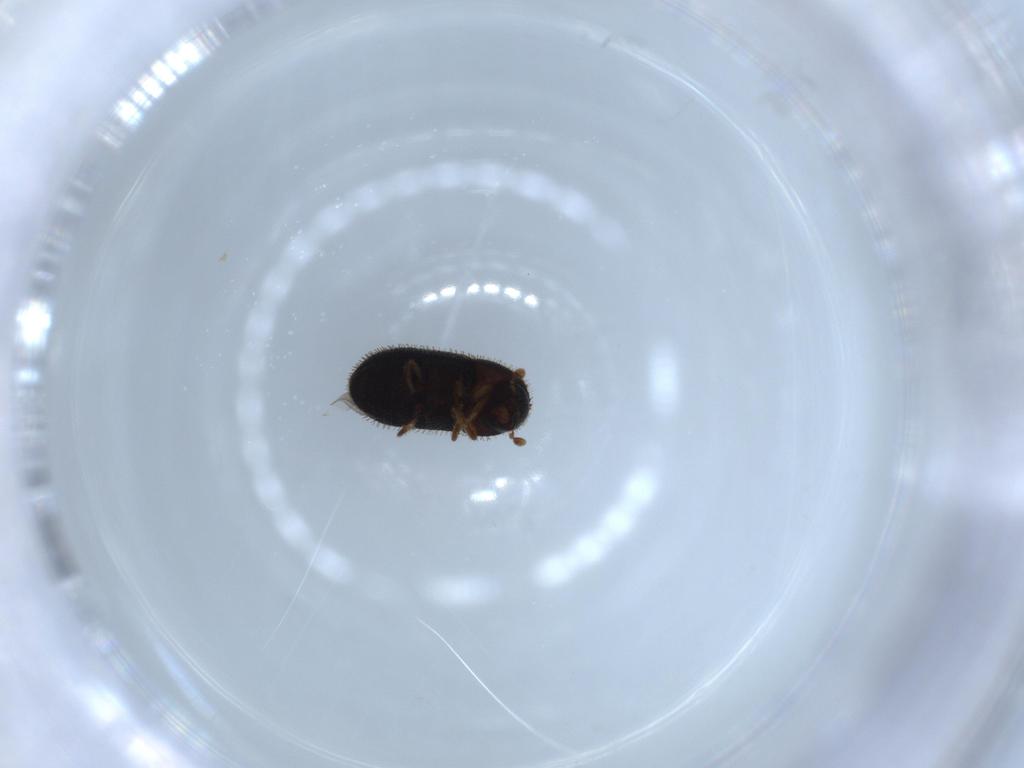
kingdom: Animalia
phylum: Arthropoda
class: Insecta
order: Coleoptera
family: Curculionidae
